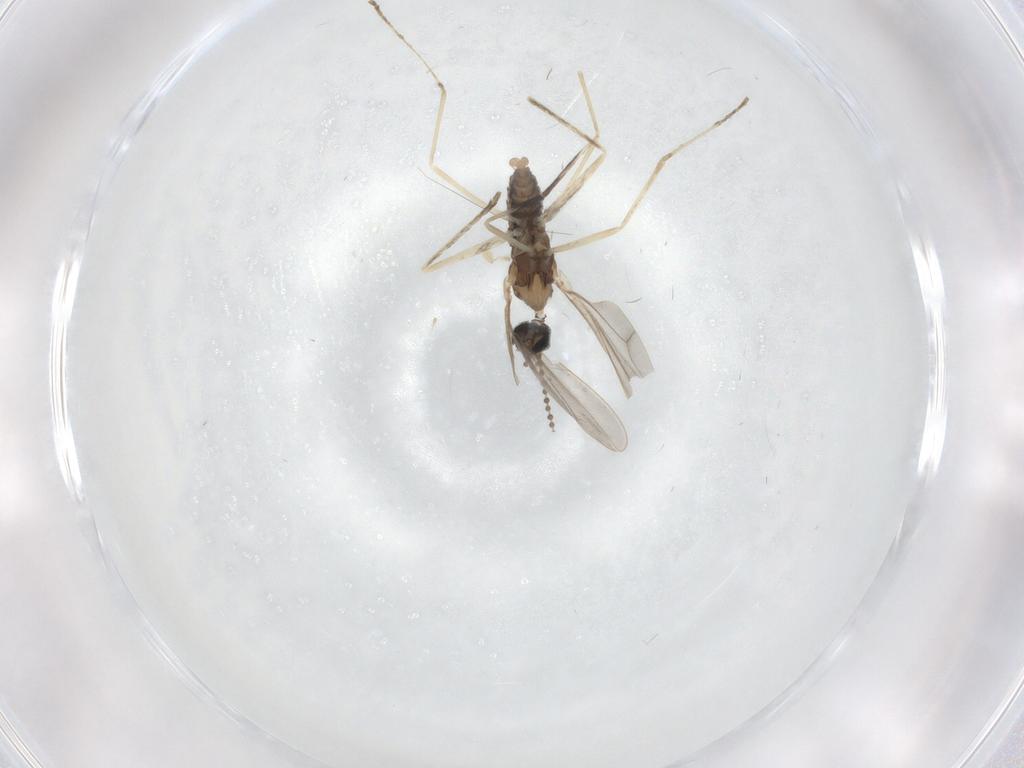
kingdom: Animalia
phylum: Arthropoda
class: Insecta
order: Diptera
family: Cecidomyiidae
